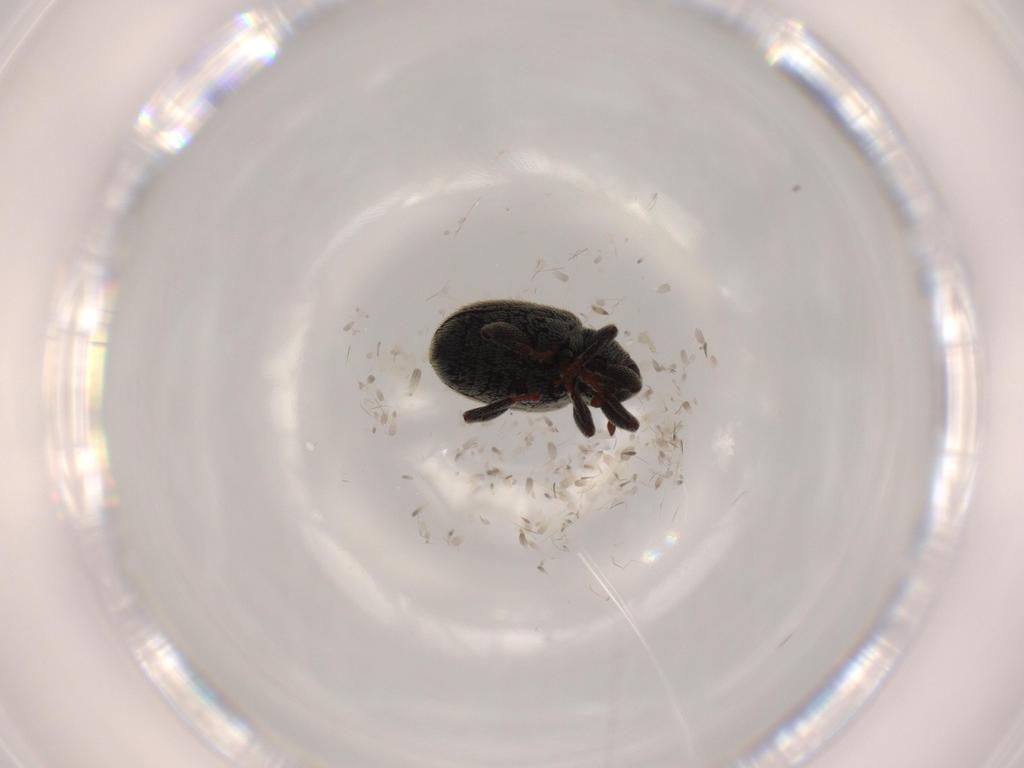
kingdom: Animalia
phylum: Arthropoda
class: Insecta
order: Coleoptera
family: Curculionidae
